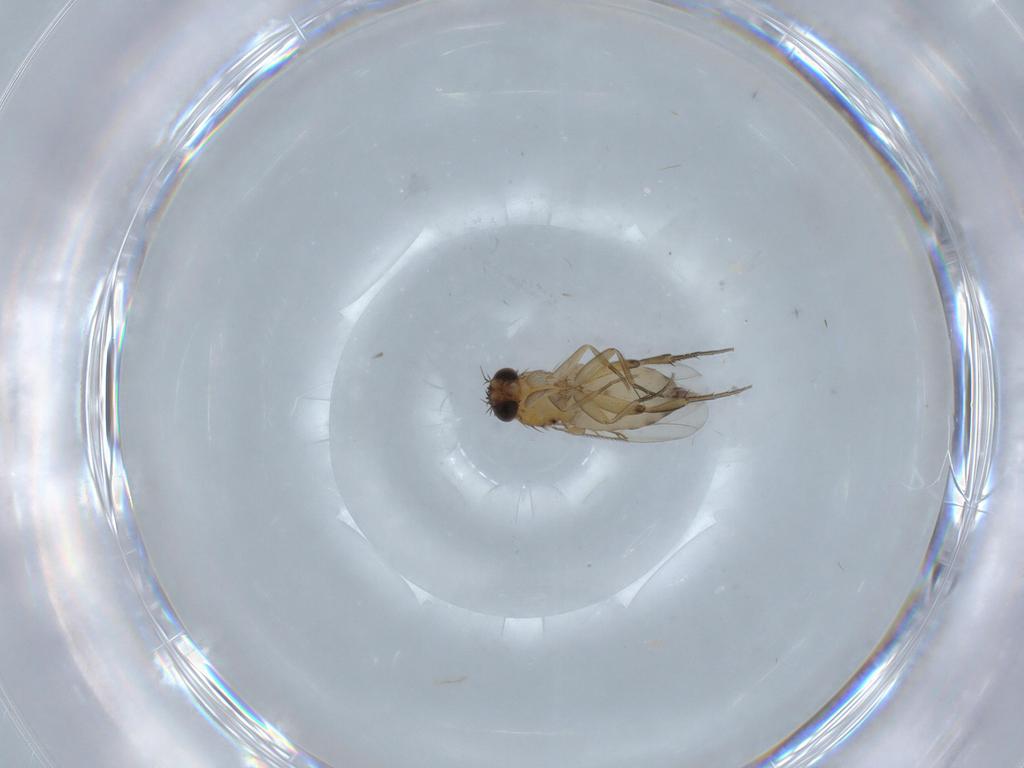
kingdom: Animalia
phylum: Arthropoda
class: Insecta
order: Diptera
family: Phoridae
